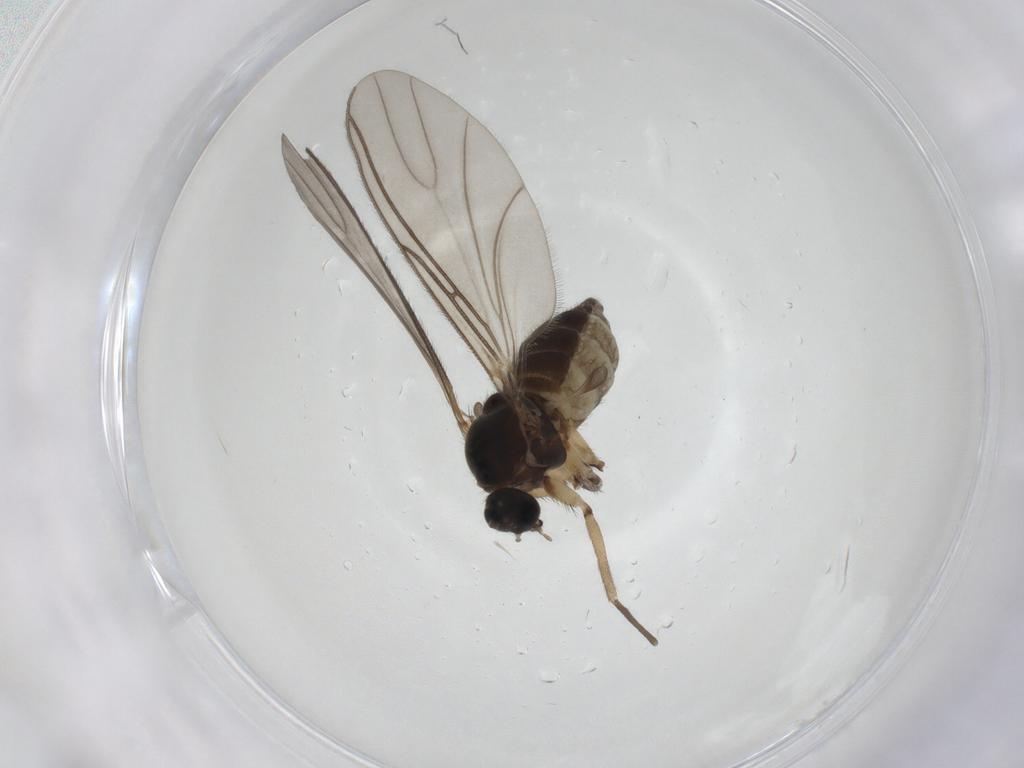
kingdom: Animalia
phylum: Arthropoda
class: Insecta
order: Diptera
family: Sciaridae
